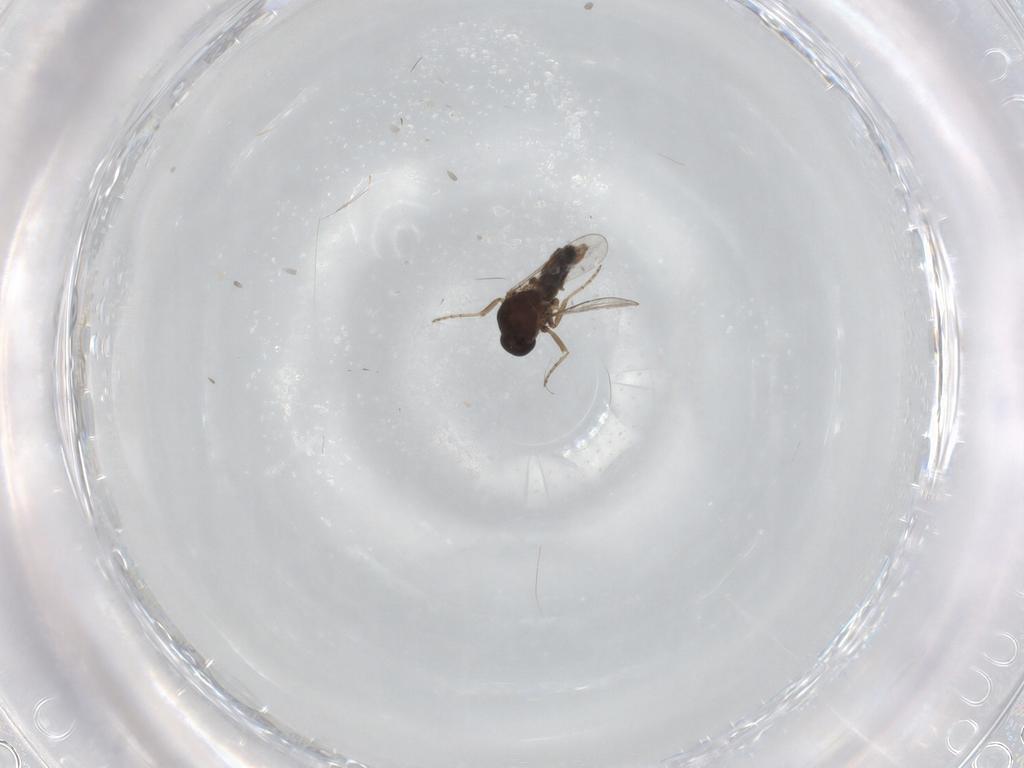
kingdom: Animalia
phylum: Arthropoda
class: Insecta
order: Diptera
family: Ceratopogonidae
